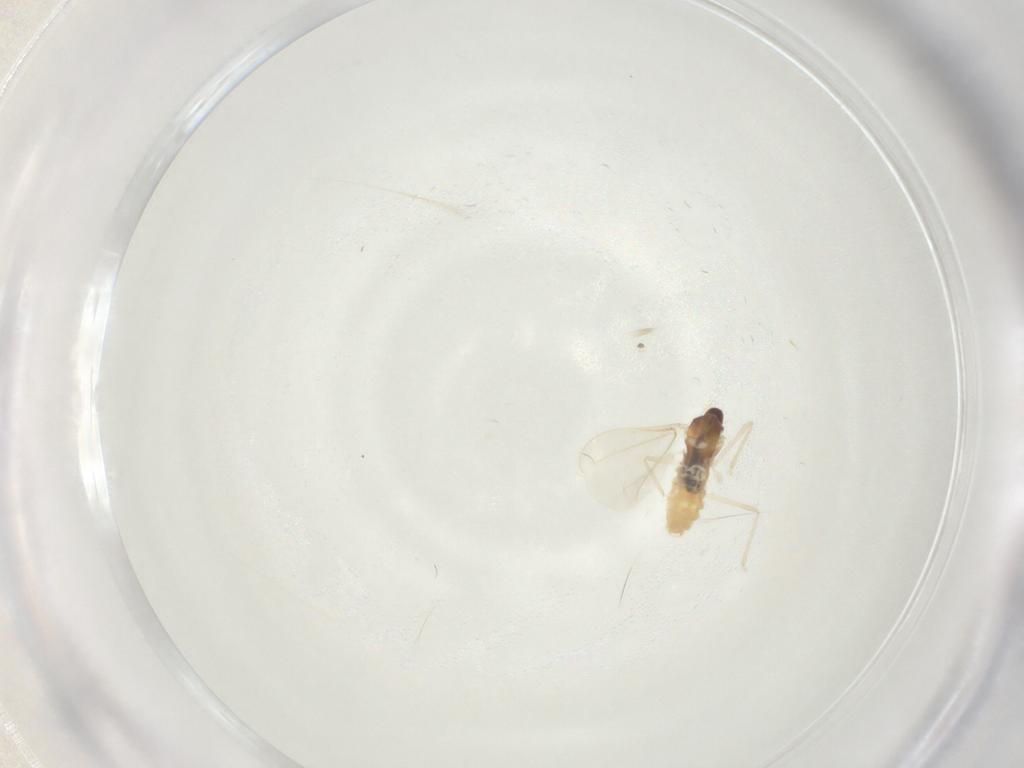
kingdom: Animalia
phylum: Arthropoda
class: Insecta
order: Diptera
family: Cecidomyiidae
